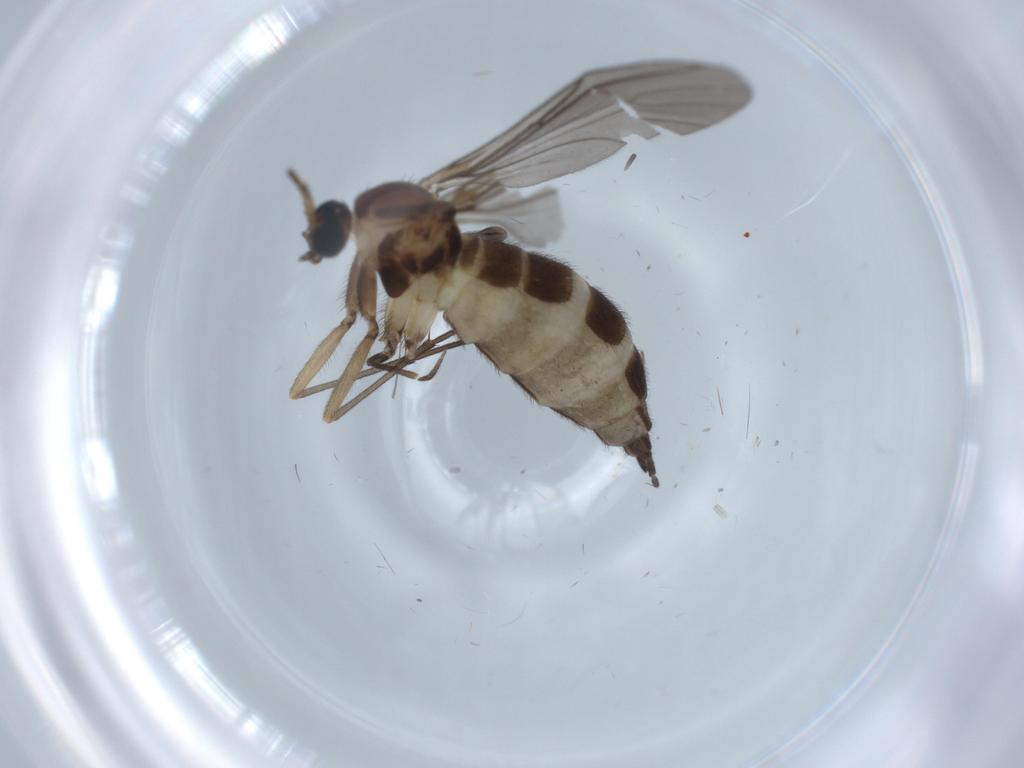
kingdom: Animalia
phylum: Arthropoda
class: Insecta
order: Diptera
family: Sciaridae
